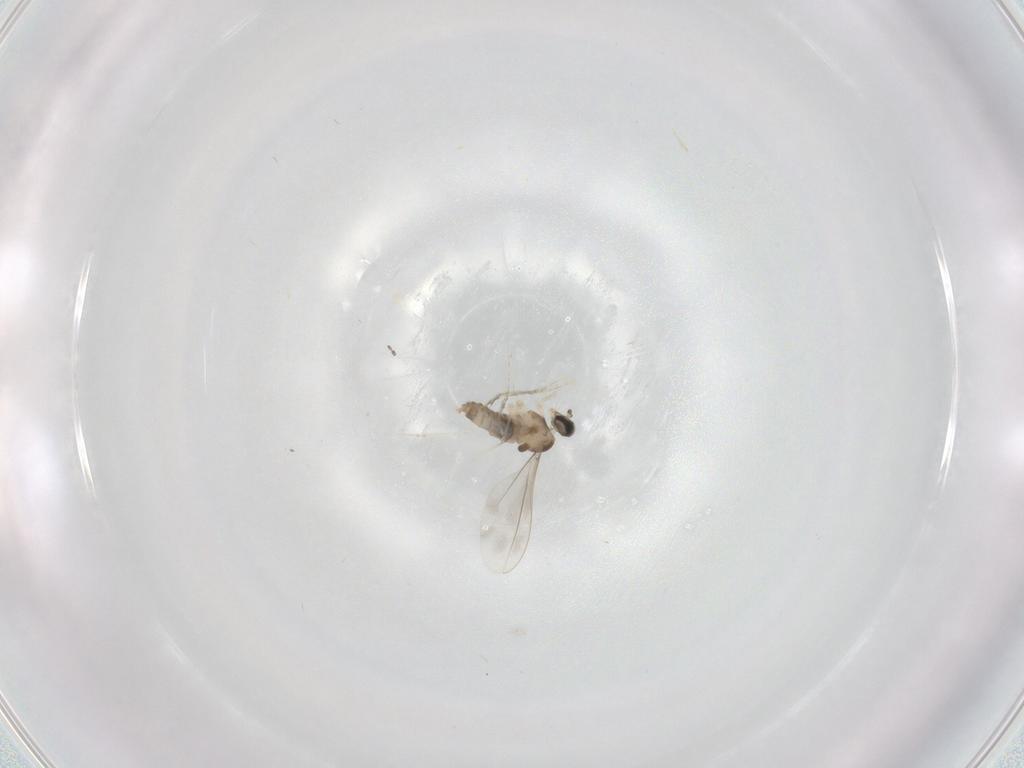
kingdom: Animalia
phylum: Arthropoda
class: Insecta
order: Diptera
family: Cecidomyiidae
